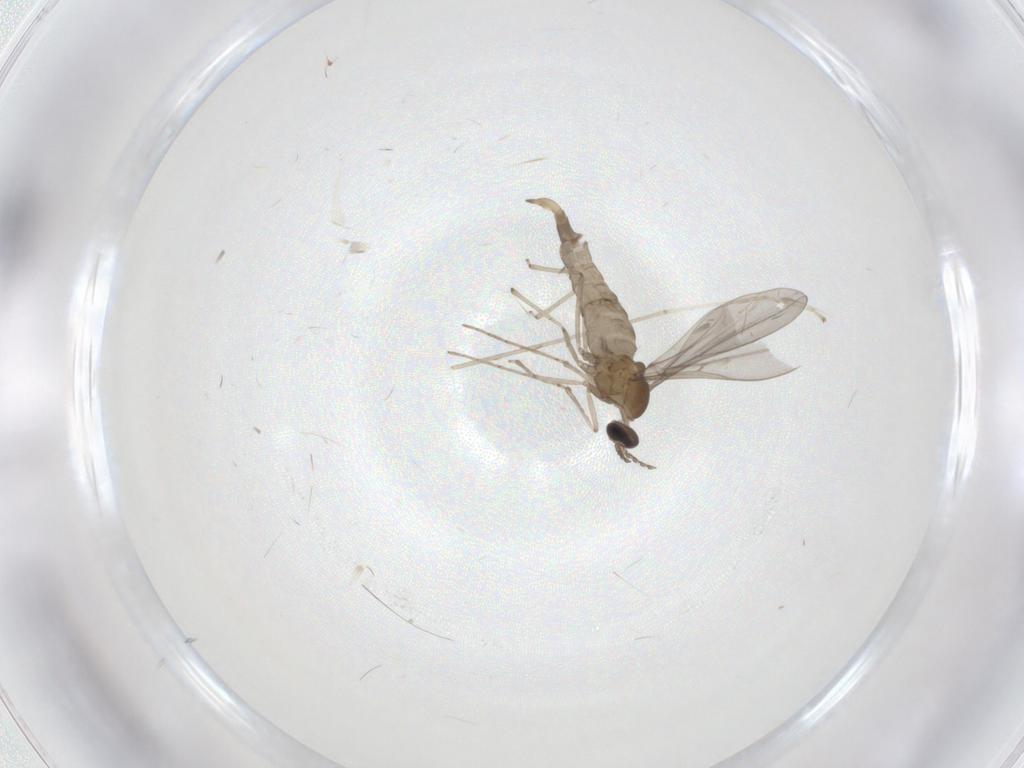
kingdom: Animalia
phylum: Arthropoda
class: Insecta
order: Diptera
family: Cecidomyiidae
